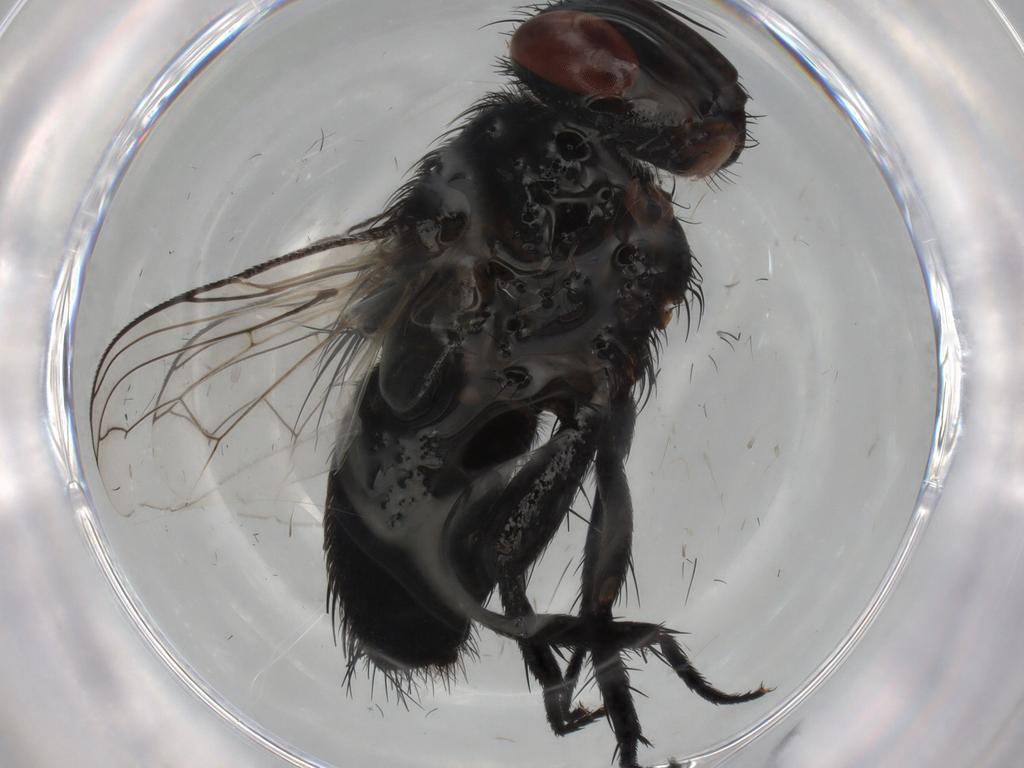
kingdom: Animalia
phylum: Arthropoda
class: Insecta
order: Diptera
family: Tachinidae
